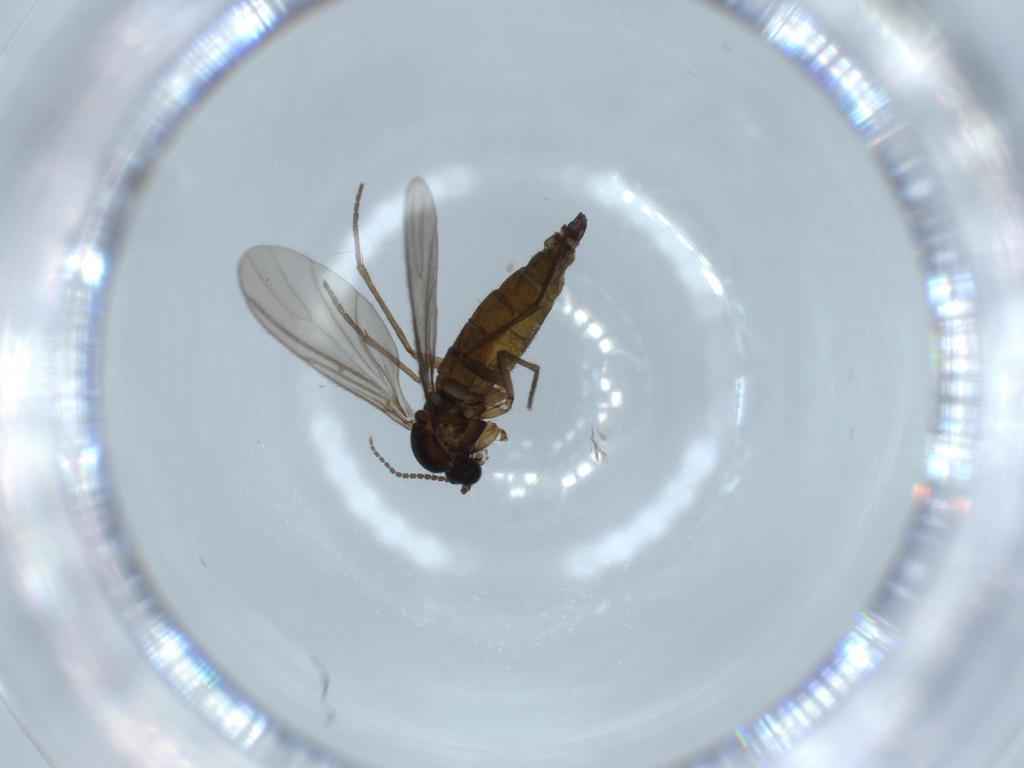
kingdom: Animalia
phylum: Arthropoda
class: Insecta
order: Diptera
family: Sciaridae
